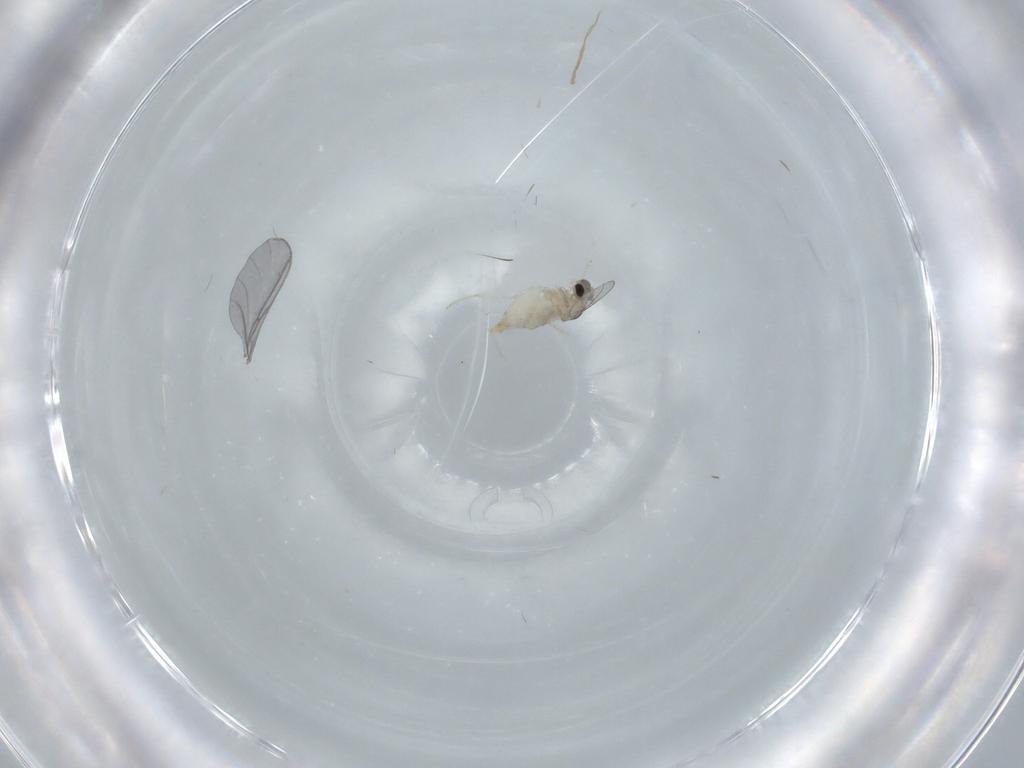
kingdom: Animalia
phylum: Arthropoda
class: Insecta
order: Diptera
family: Cecidomyiidae
